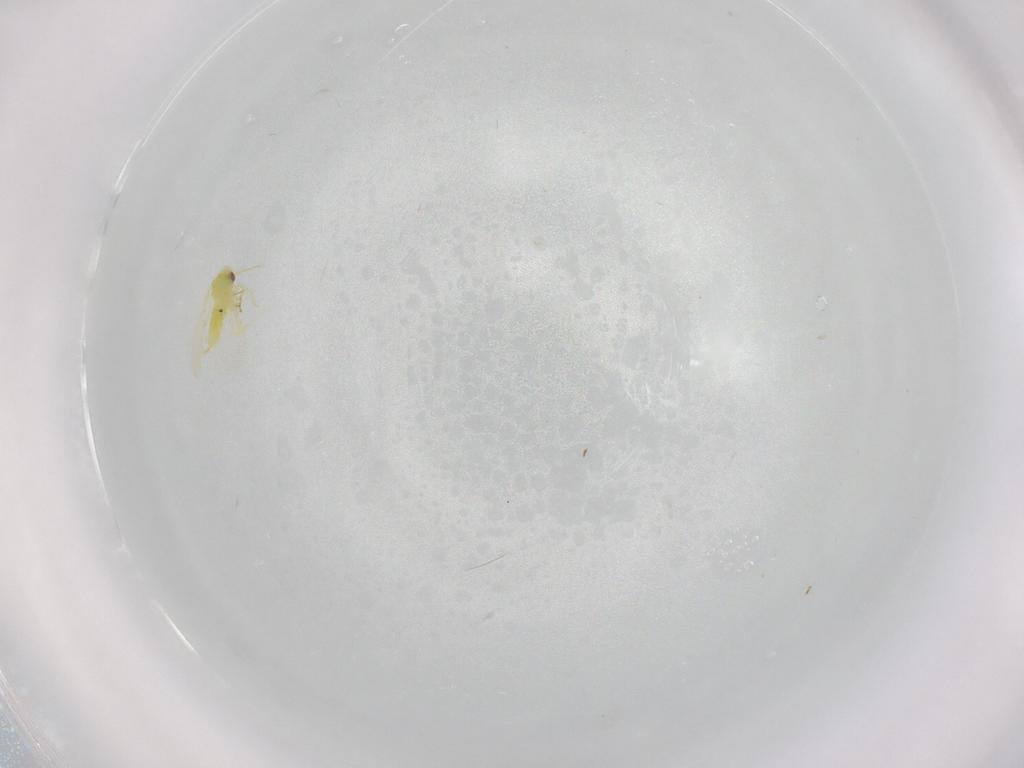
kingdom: Animalia
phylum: Arthropoda
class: Insecta
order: Hemiptera
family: Aleyrodidae
